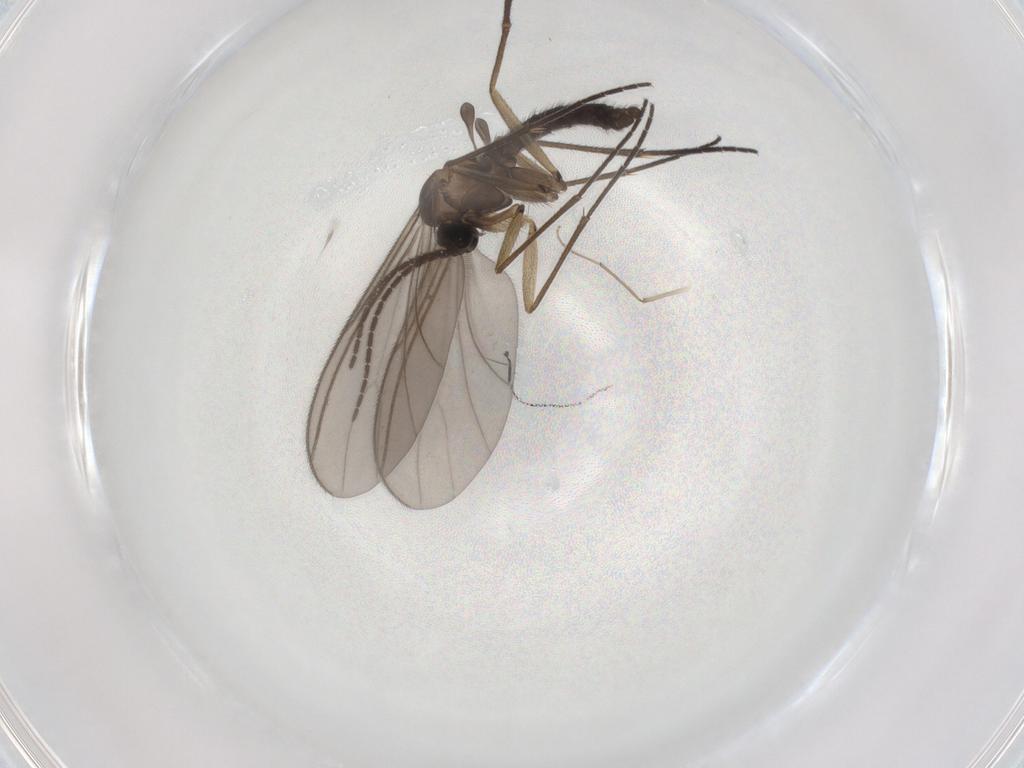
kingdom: Animalia
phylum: Arthropoda
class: Insecta
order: Diptera
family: Sciaridae
